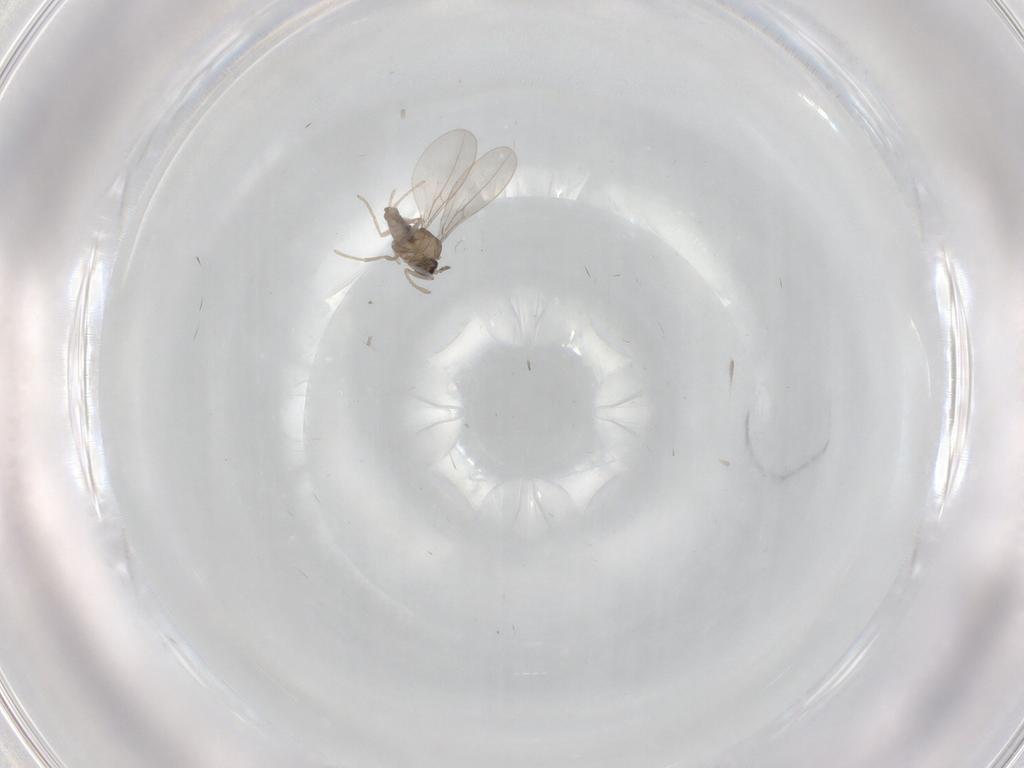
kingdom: Animalia
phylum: Arthropoda
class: Insecta
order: Diptera
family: Cecidomyiidae
